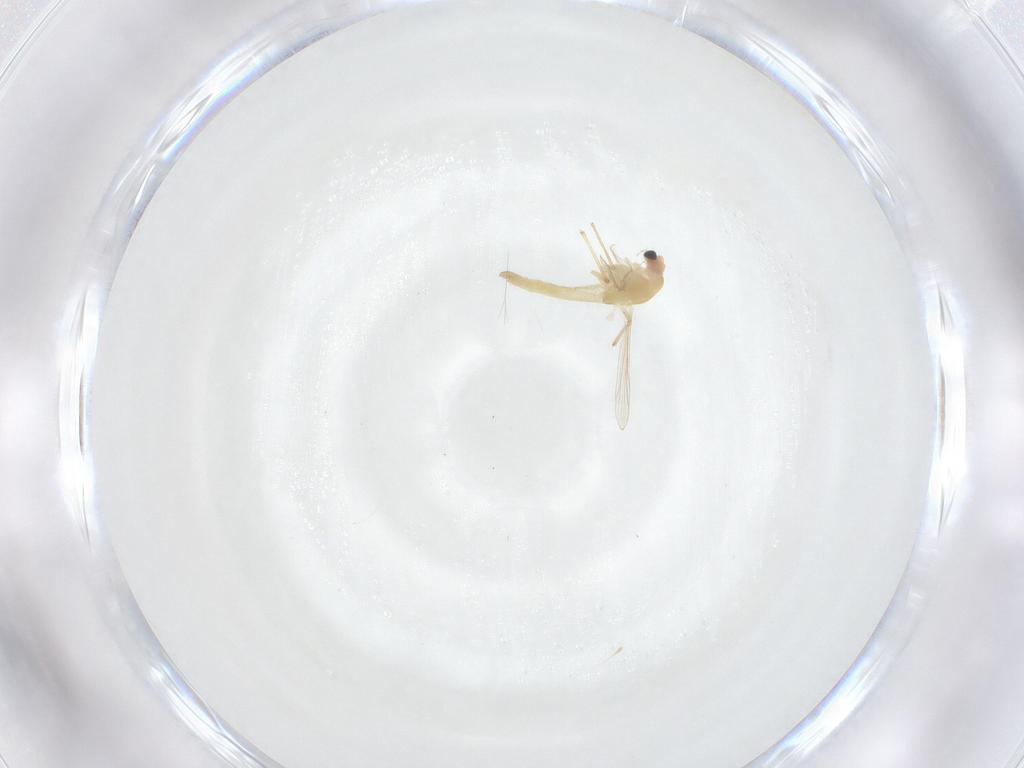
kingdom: Animalia
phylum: Arthropoda
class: Insecta
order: Diptera
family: Chironomidae
